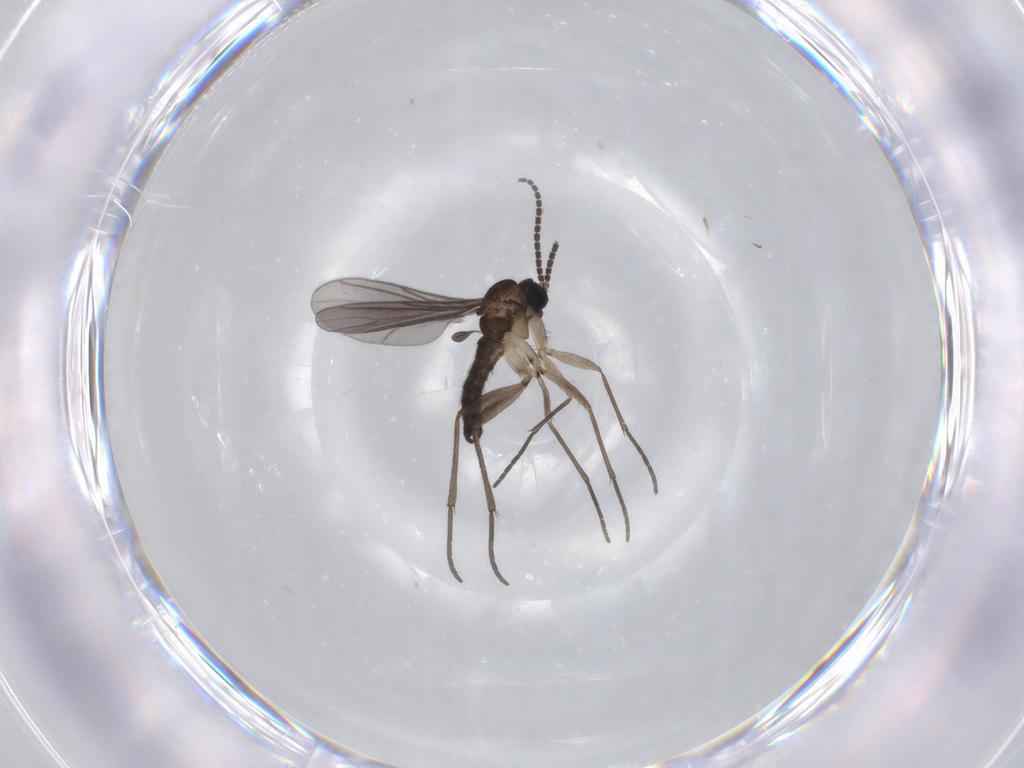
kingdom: Animalia
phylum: Arthropoda
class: Insecta
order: Diptera
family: Sciaridae
